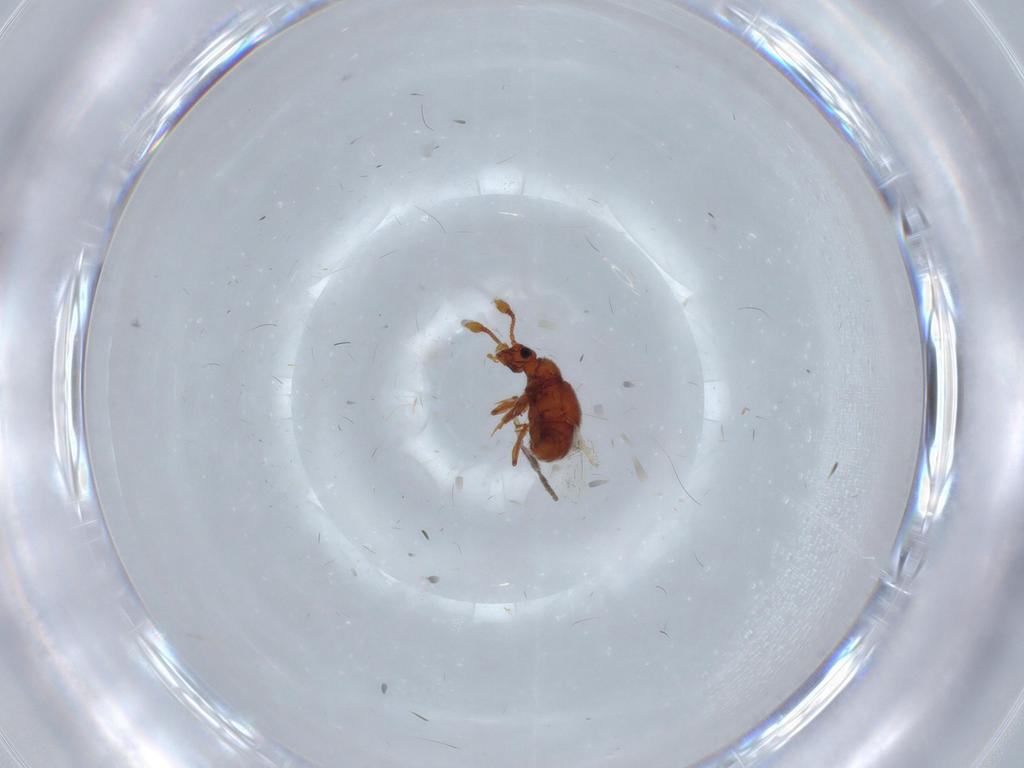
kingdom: Animalia
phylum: Arthropoda
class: Insecta
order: Coleoptera
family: Staphylinidae
